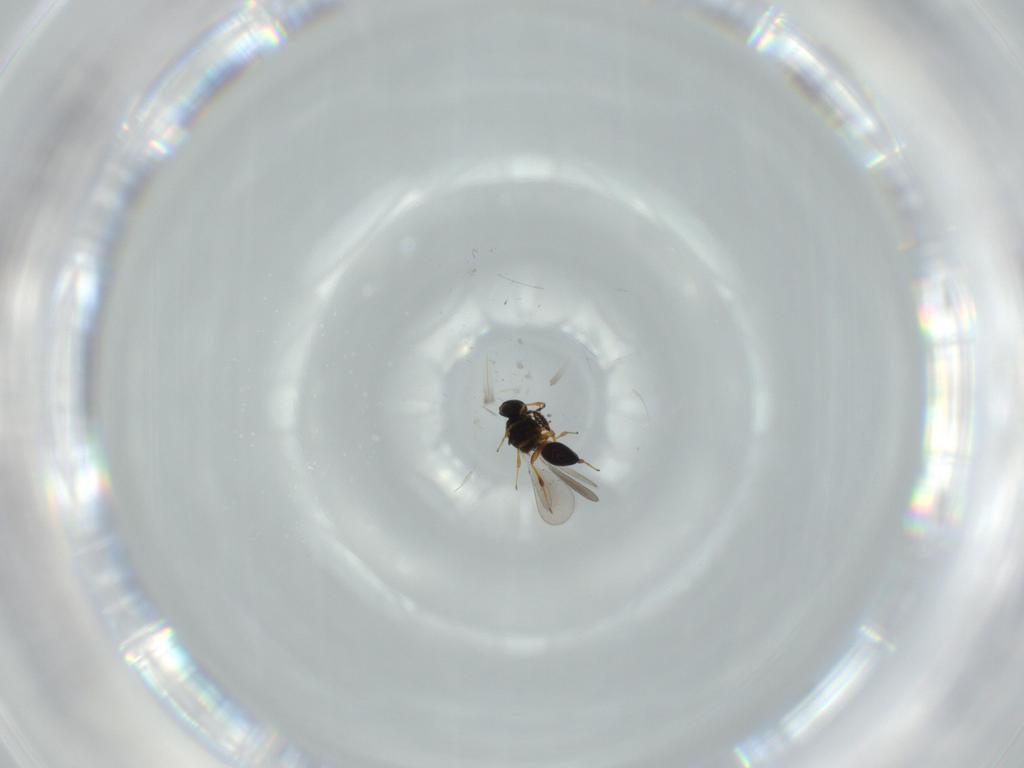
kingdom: Animalia
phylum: Arthropoda
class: Insecta
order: Hymenoptera
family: Platygastridae
